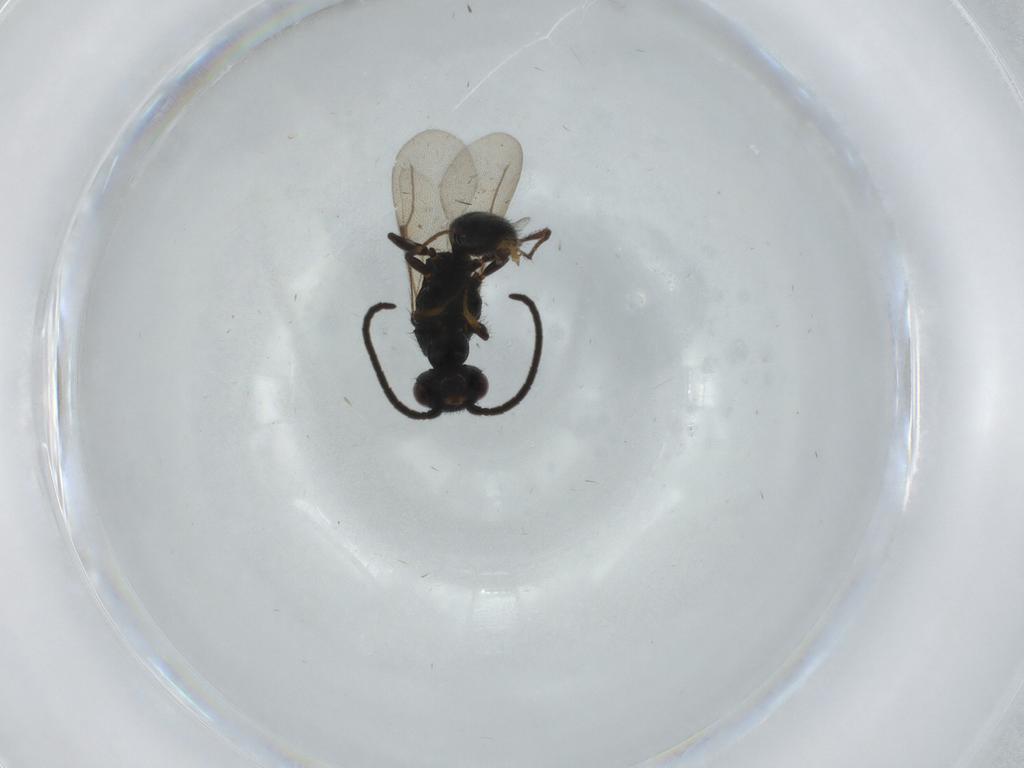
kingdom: Animalia
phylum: Arthropoda
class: Insecta
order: Hymenoptera
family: Bethylidae
